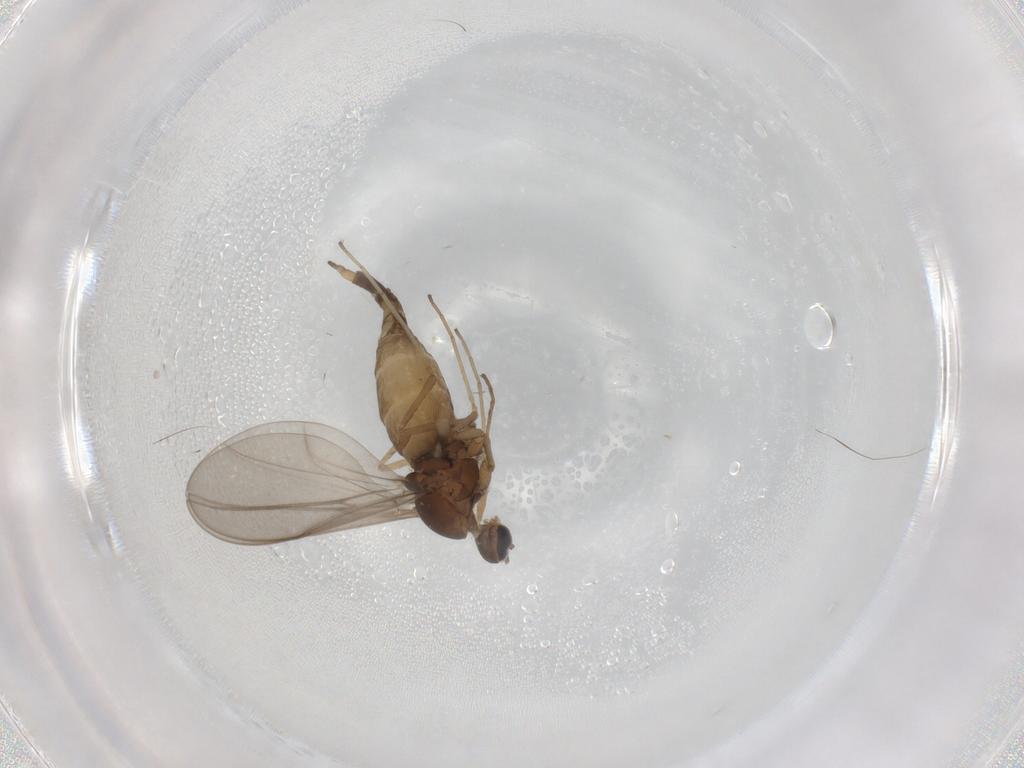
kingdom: Animalia
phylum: Arthropoda
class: Insecta
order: Diptera
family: Cecidomyiidae
